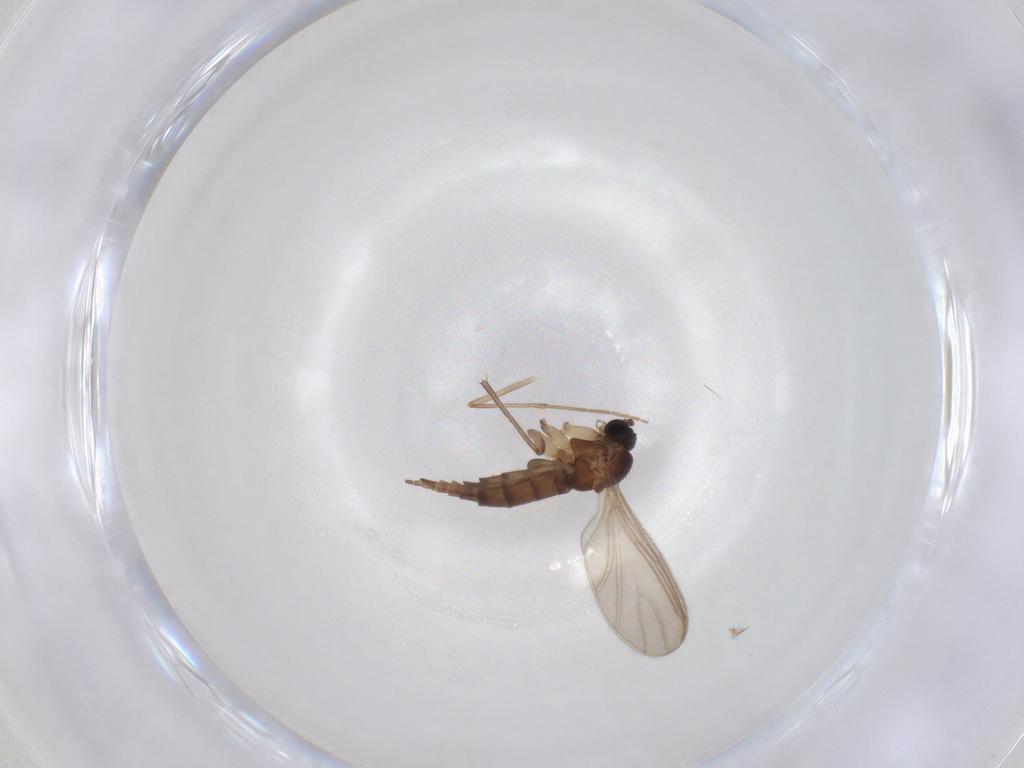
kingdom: Animalia
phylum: Arthropoda
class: Insecta
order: Diptera
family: Sciaridae
